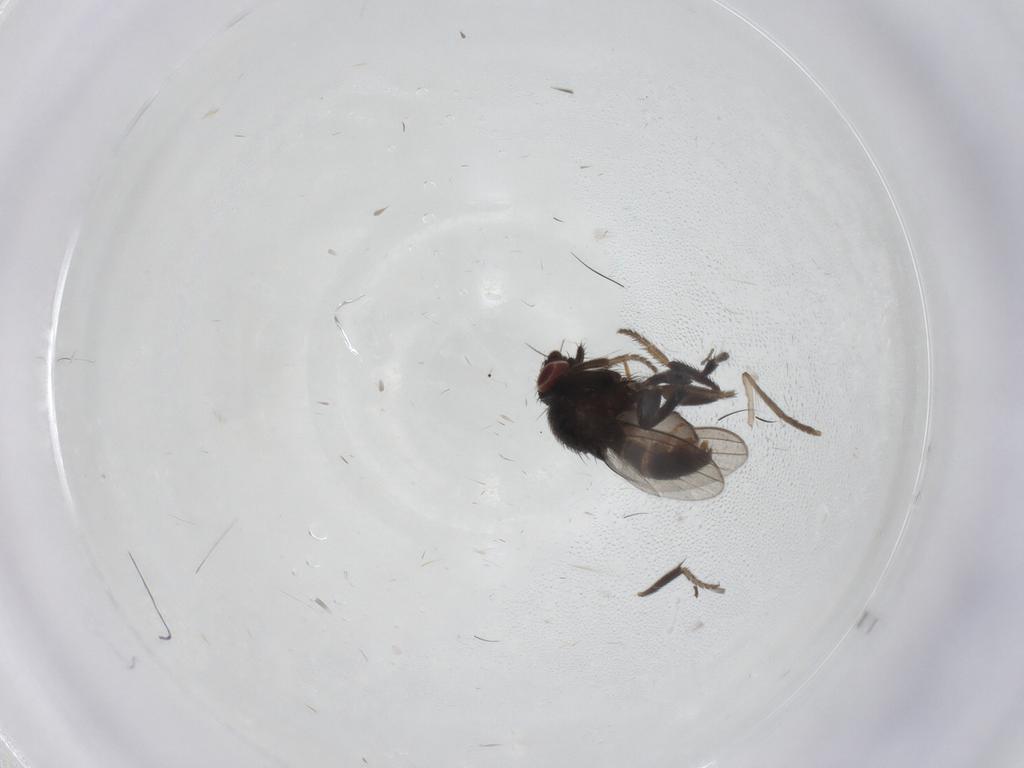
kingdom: Animalia
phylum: Arthropoda
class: Insecta
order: Diptera
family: Milichiidae
